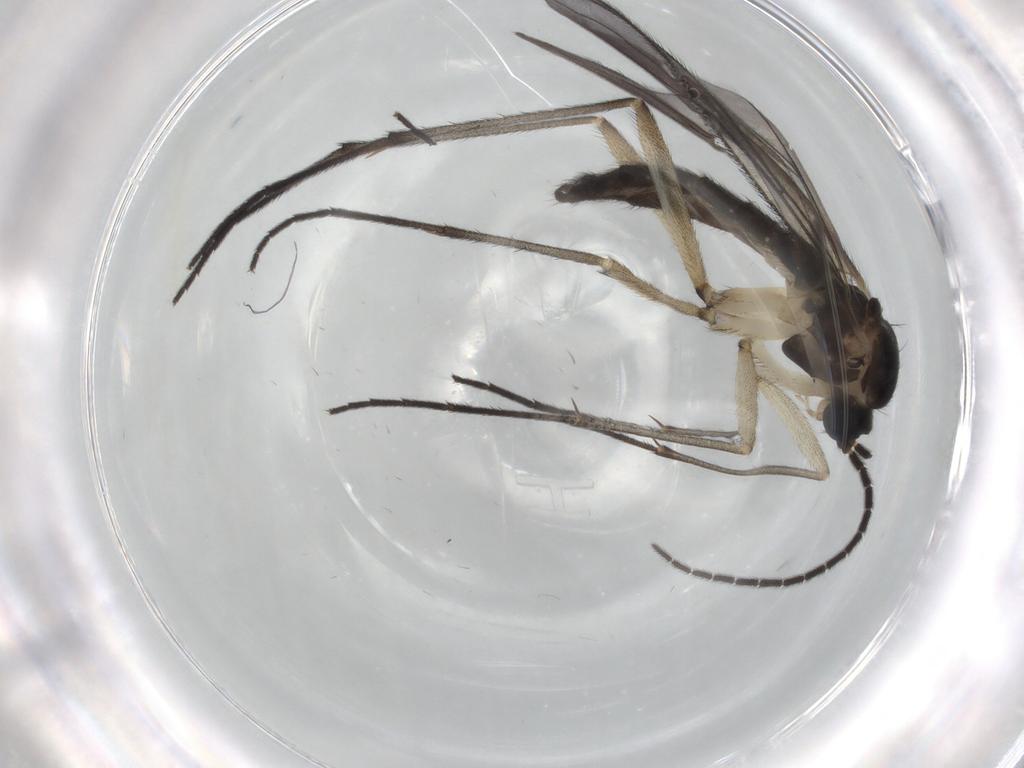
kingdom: Animalia
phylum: Arthropoda
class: Insecta
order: Diptera
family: Sciaridae
